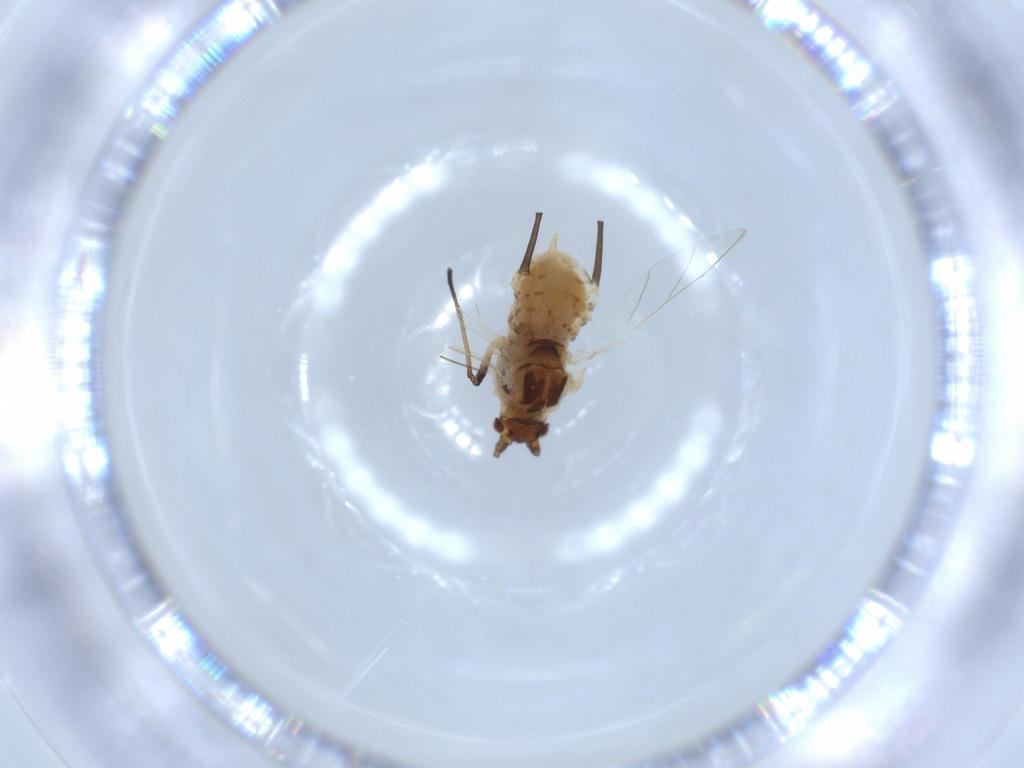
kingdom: Animalia
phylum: Arthropoda
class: Insecta
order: Hemiptera
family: Aphididae
